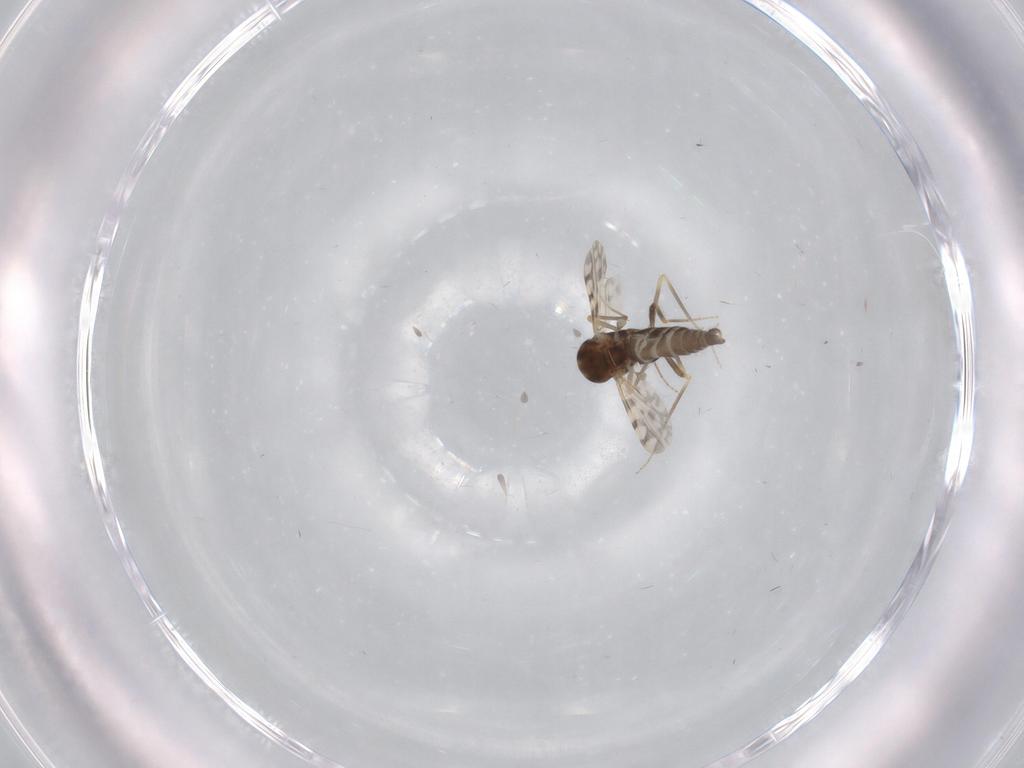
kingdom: Animalia
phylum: Arthropoda
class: Insecta
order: Diptera
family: Ceratopogonidae
